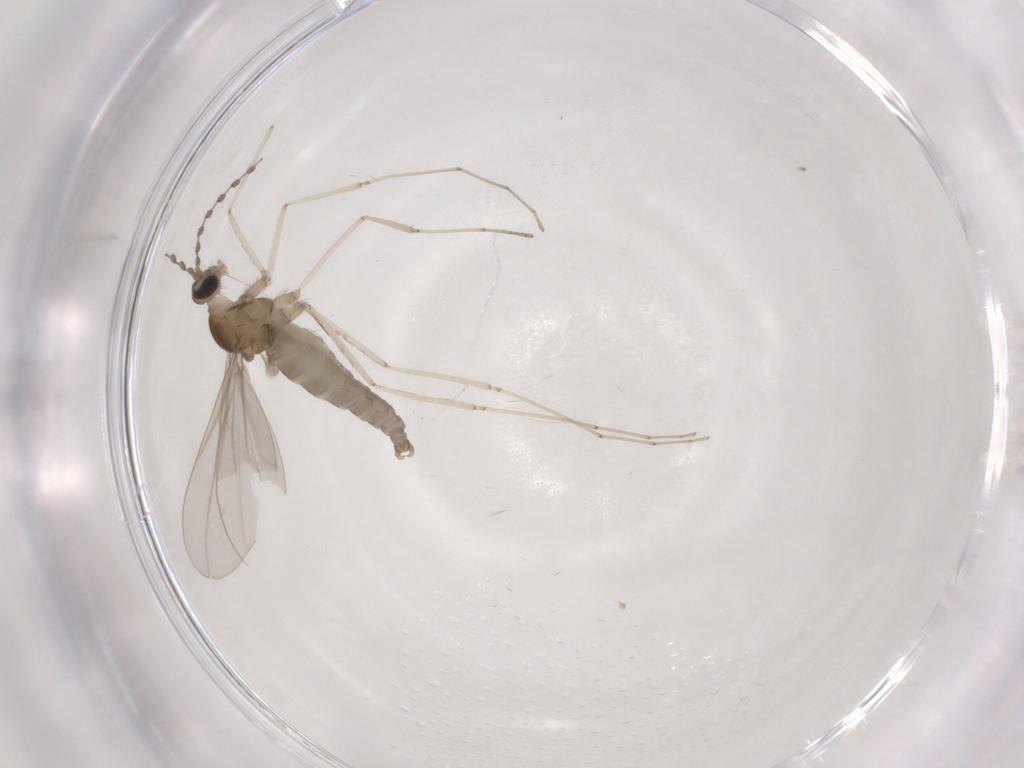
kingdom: Animalia
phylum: Arthropoda
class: Insecta
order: Diptera
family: Cecidomyiidae
